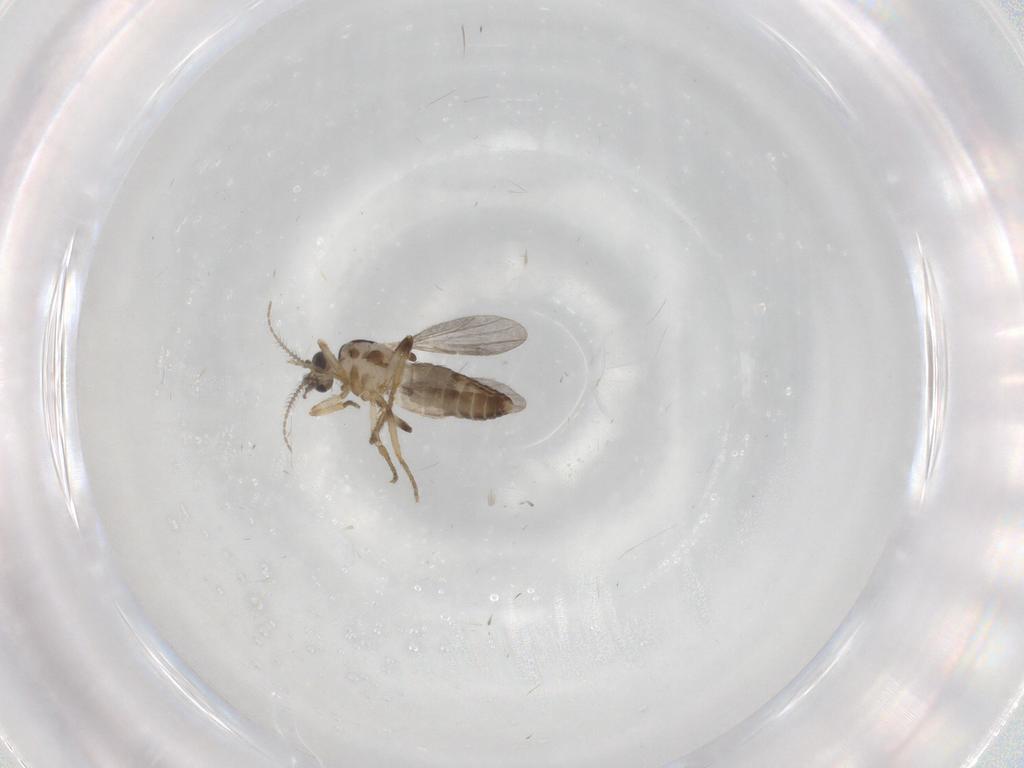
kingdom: Animalia
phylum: Arthropoda
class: Insecta
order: Diptera
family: Ceratopogonidae
